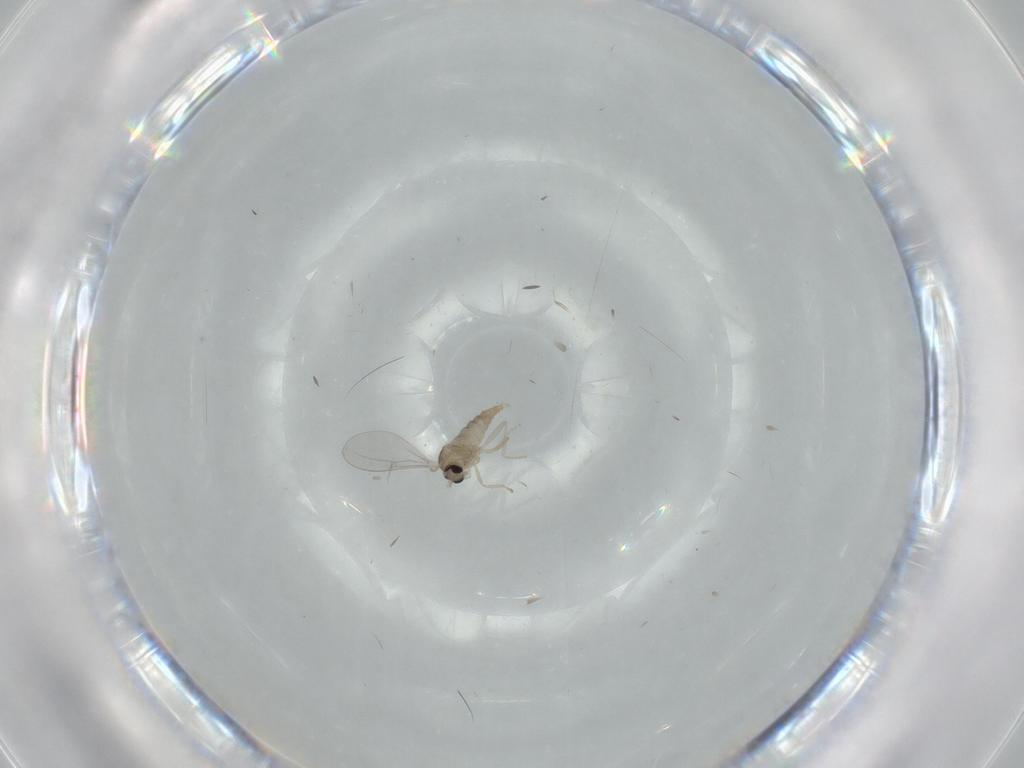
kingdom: Animalia
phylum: Arthropoda
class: Insecta
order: Diptera
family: Cecidomyiidae
